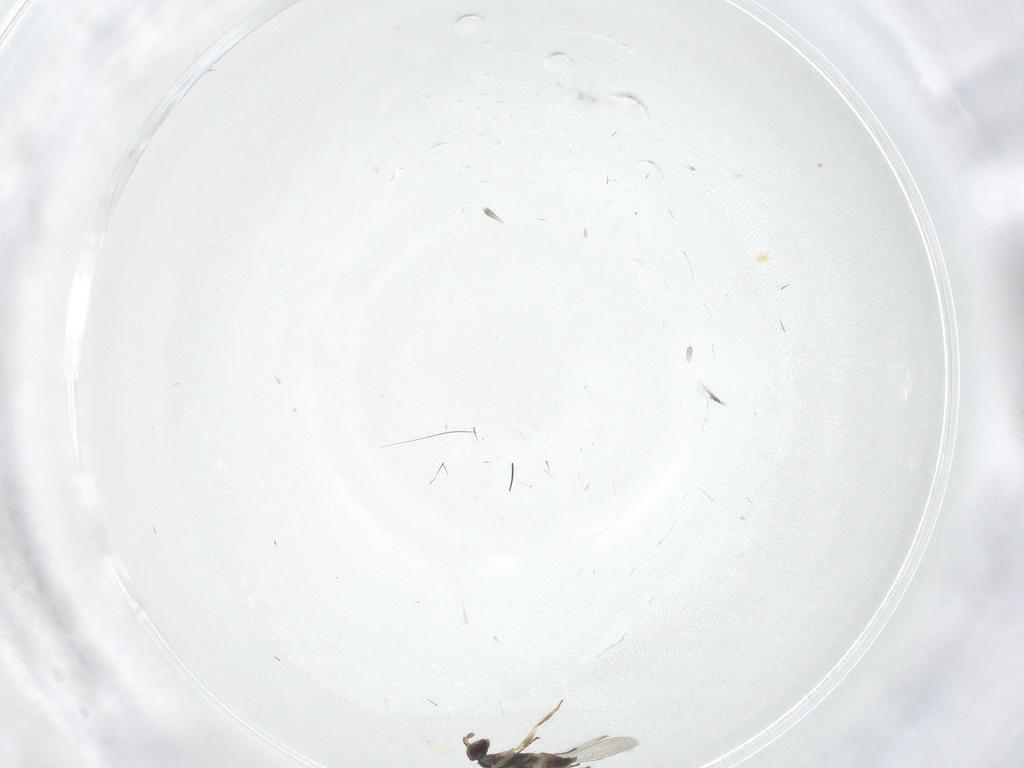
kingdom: Animalia
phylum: Arthropoda
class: Insecta
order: Hymenoptera
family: Mymaridae
